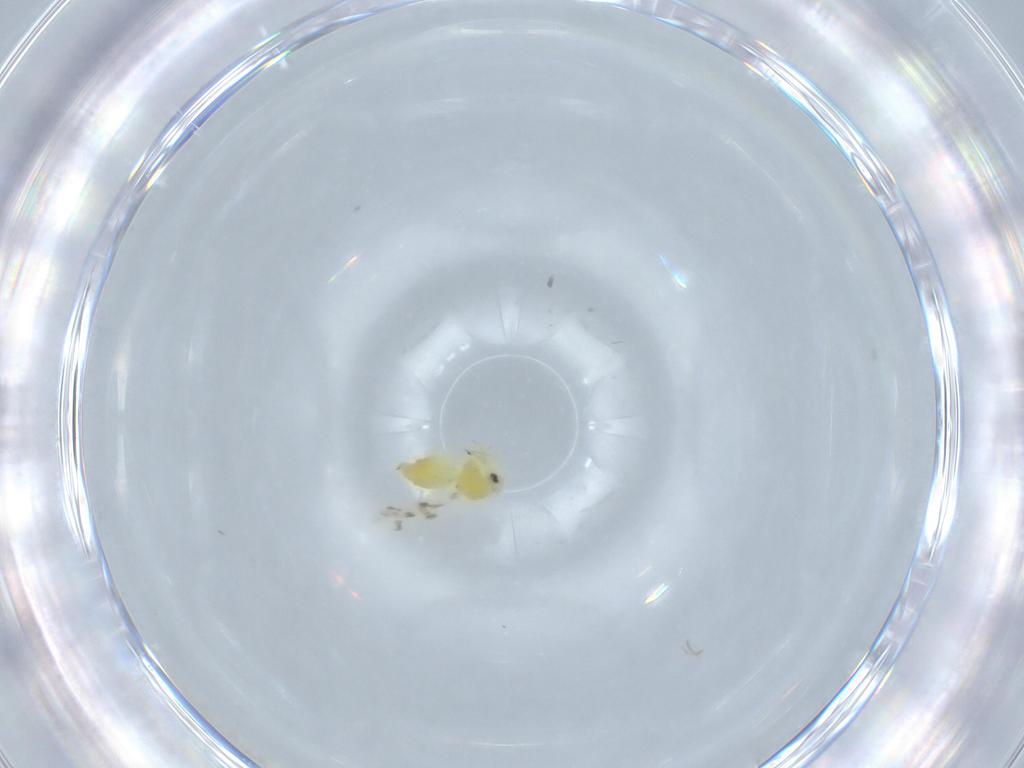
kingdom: Animalia
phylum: Arthropoda
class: Insecta
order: Hemiptera
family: Aleyrodidae
